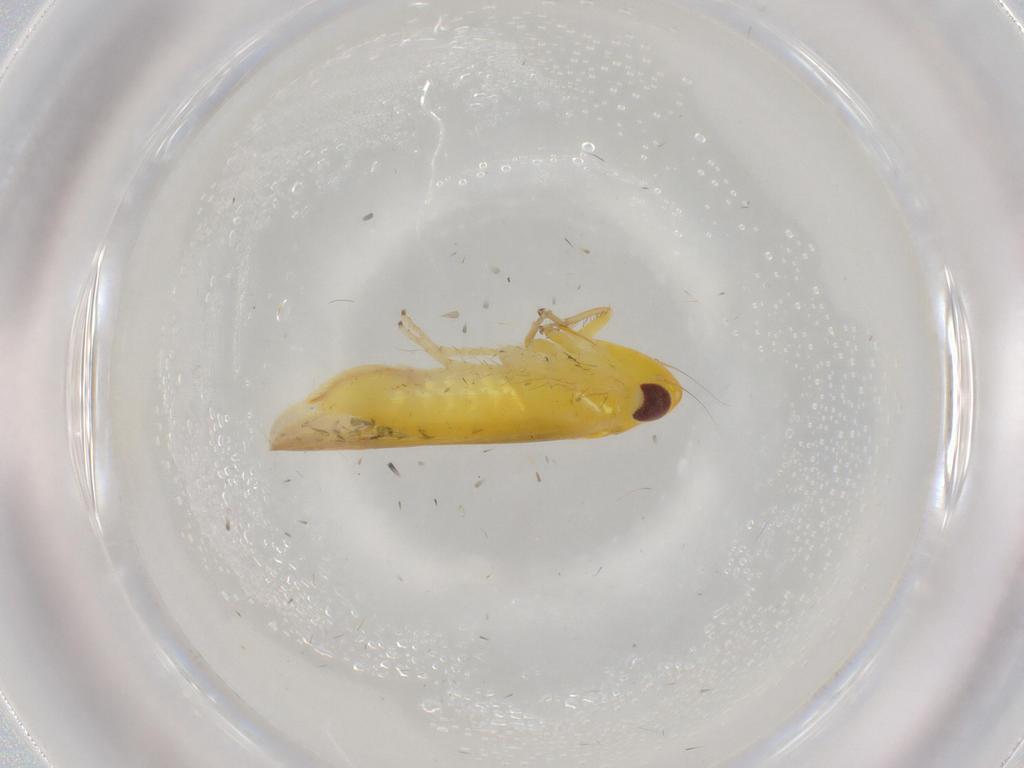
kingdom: Animalia
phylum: Arthropoda
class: Insecta
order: Hemiptera
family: Cicadellidae
